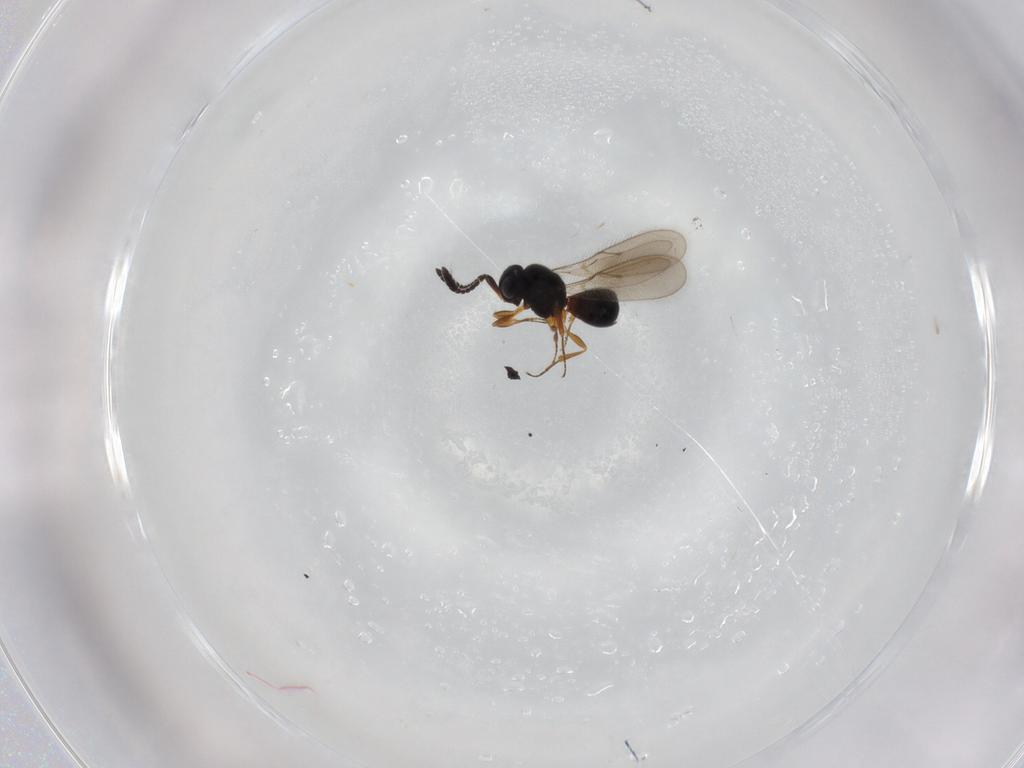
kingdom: Animalia
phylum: Arthropoda
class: Insecta
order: Hymenoptera
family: Scelionidae
